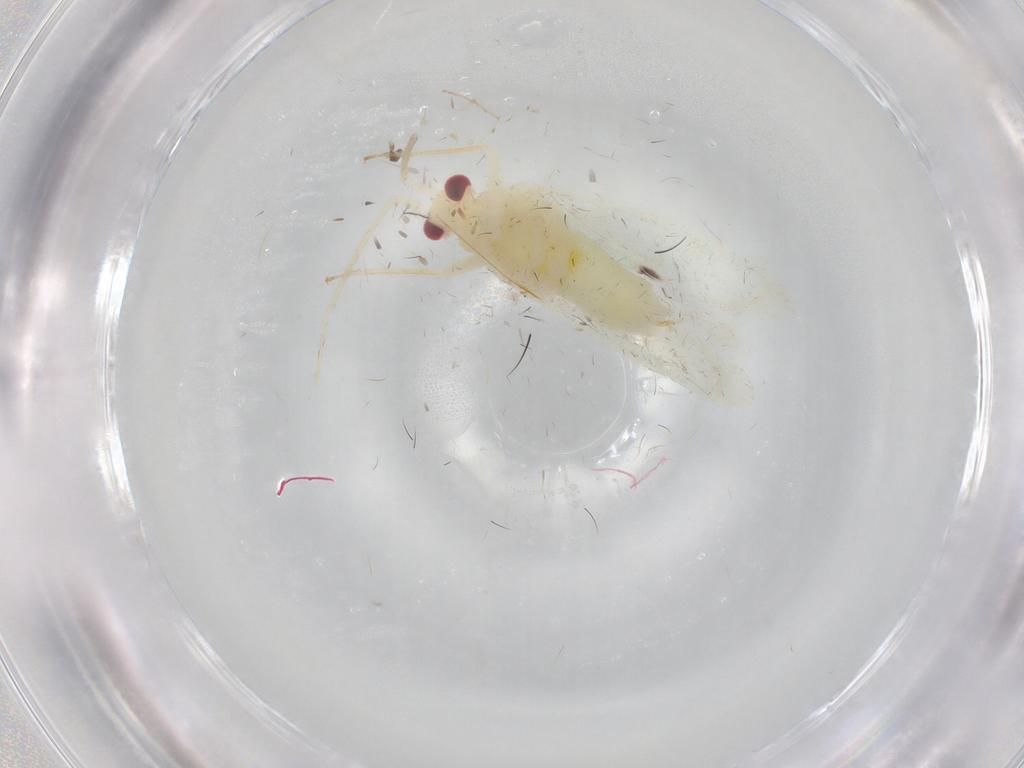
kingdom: Animalia
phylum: Arthropoda
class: Insecta
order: Hemiptera
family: Miridae
